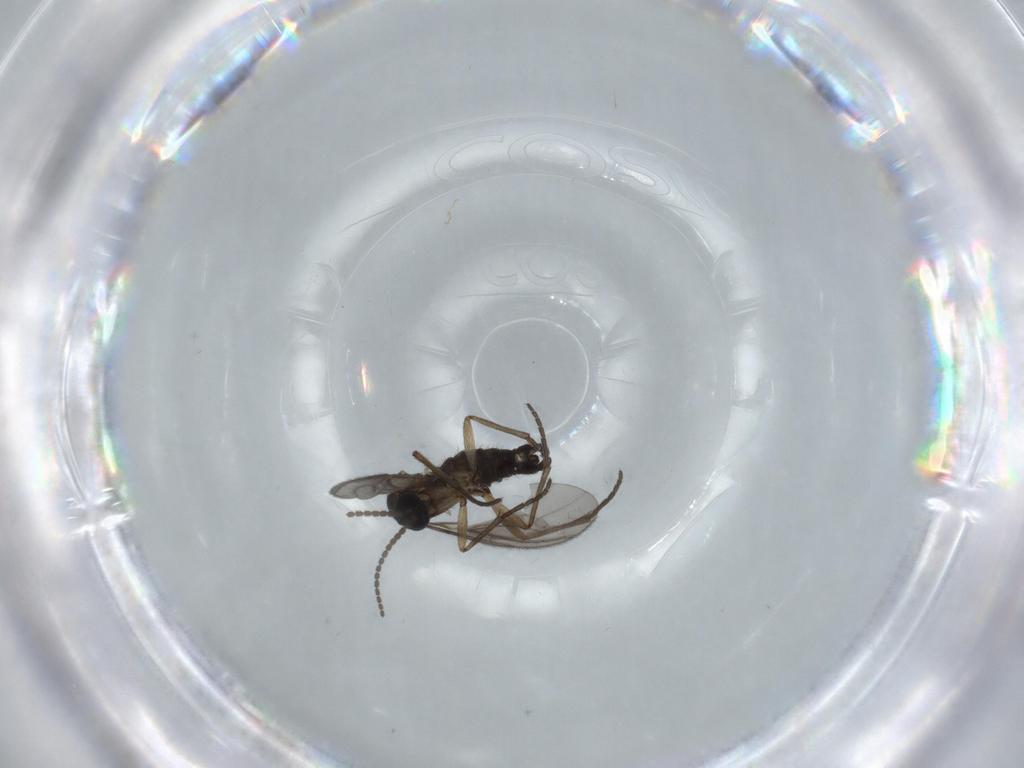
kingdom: Animalia
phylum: Arthropoda
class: Insecta
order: Diptera
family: Sciaridae
